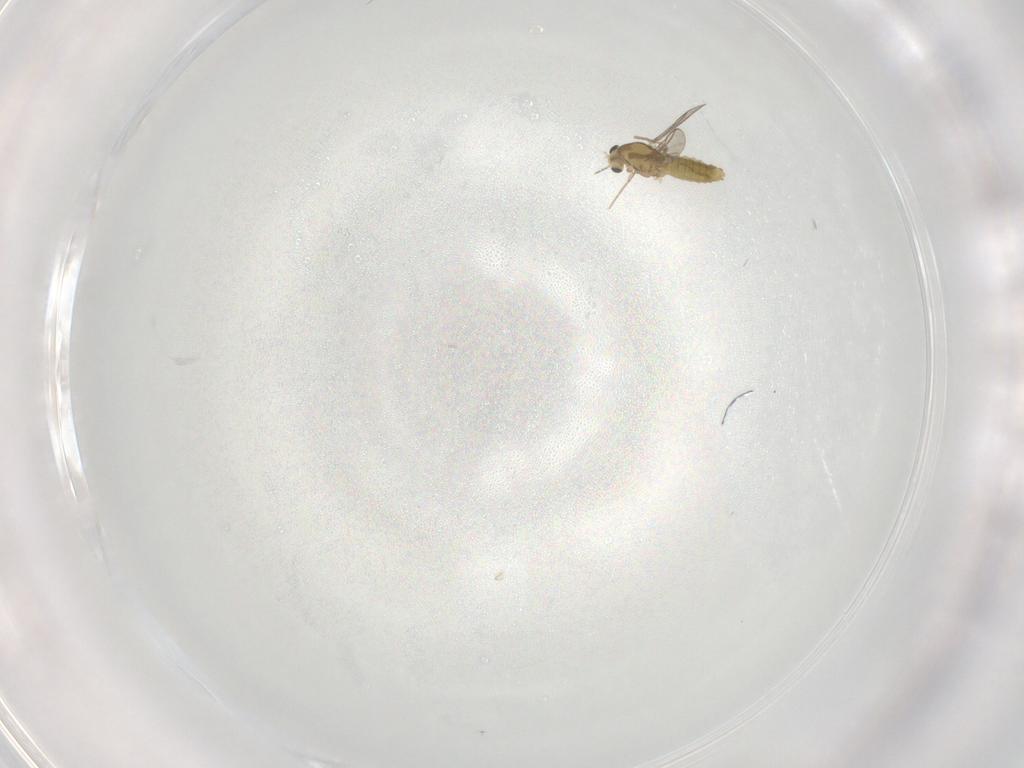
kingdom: Animalia
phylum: Arthropoda
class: Insecta
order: Diptera
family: Chironomidae
